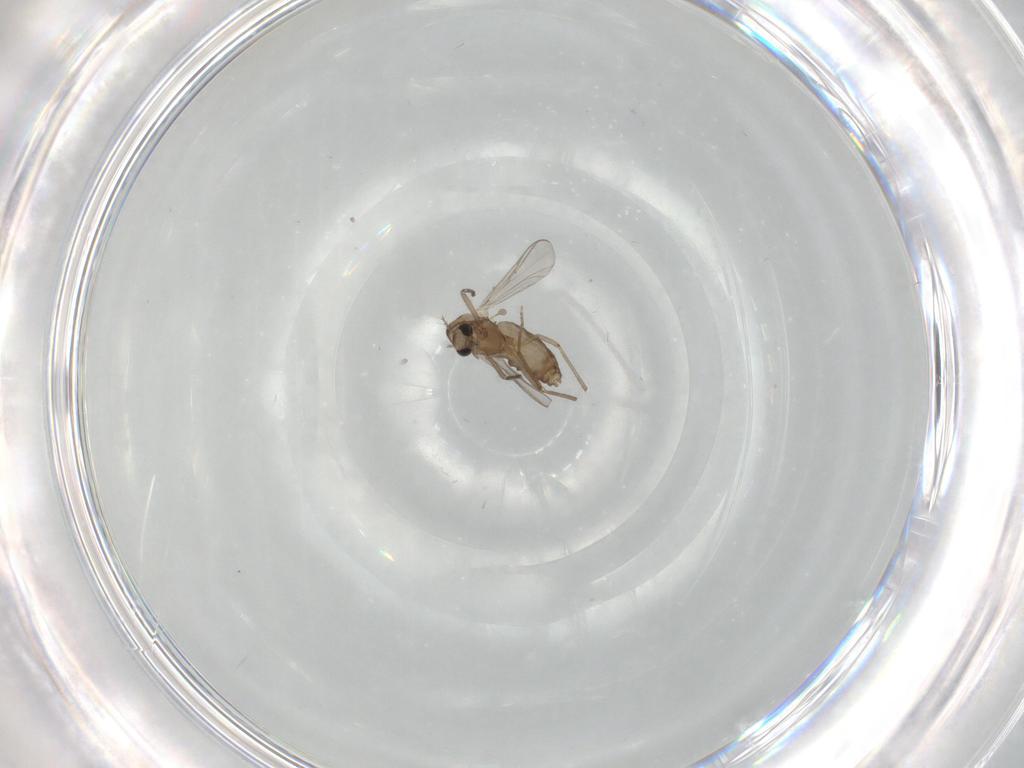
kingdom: Animalia
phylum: Arthropoda
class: Insecta
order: Diptera
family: Chironomidae
